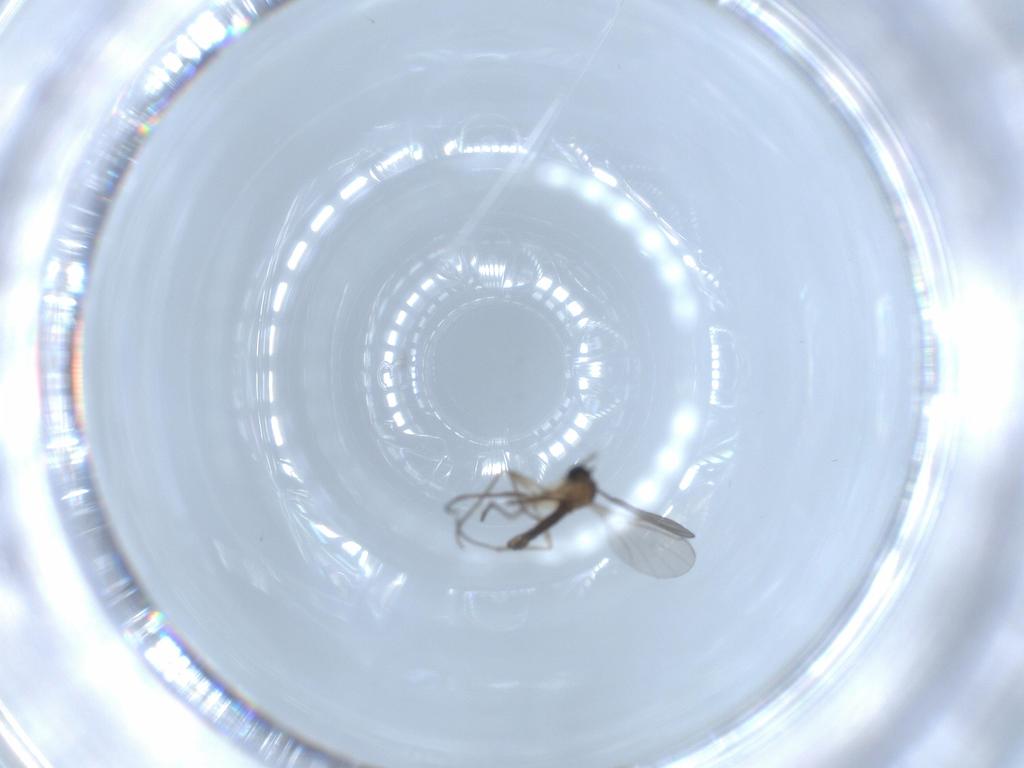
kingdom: Animalia
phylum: Arthropoda
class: Insecta
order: Diptera
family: Sciaridae
